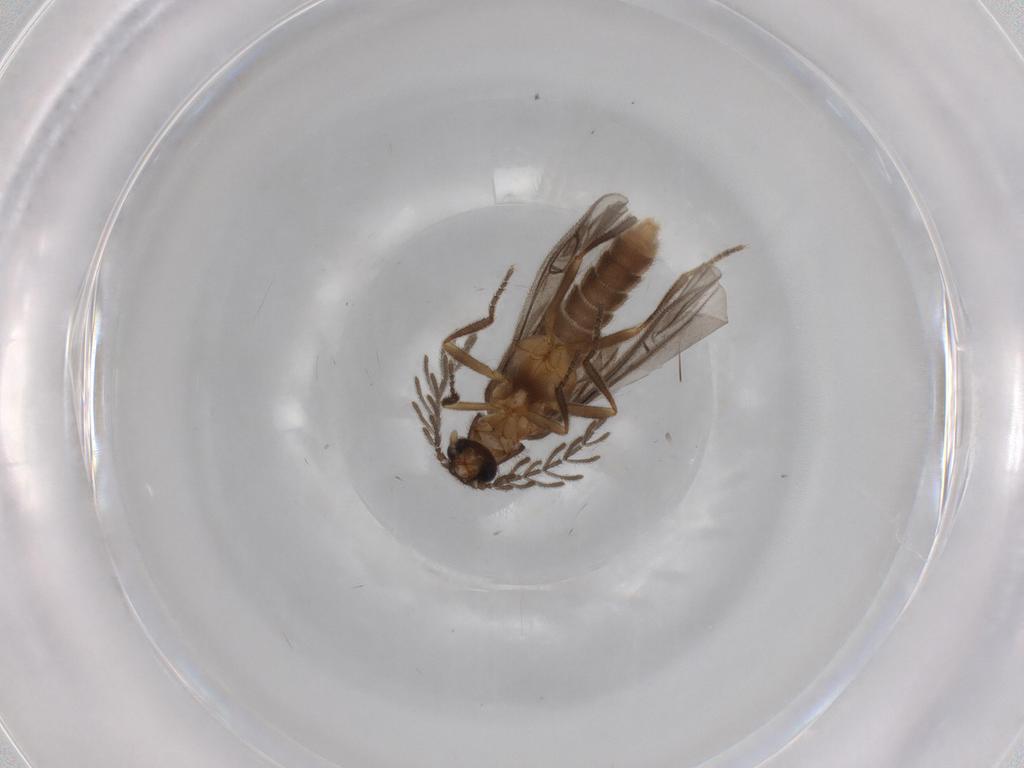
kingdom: Animalia
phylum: Arthropoda
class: Insecta
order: Coleoptera
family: Scarabaeidae
